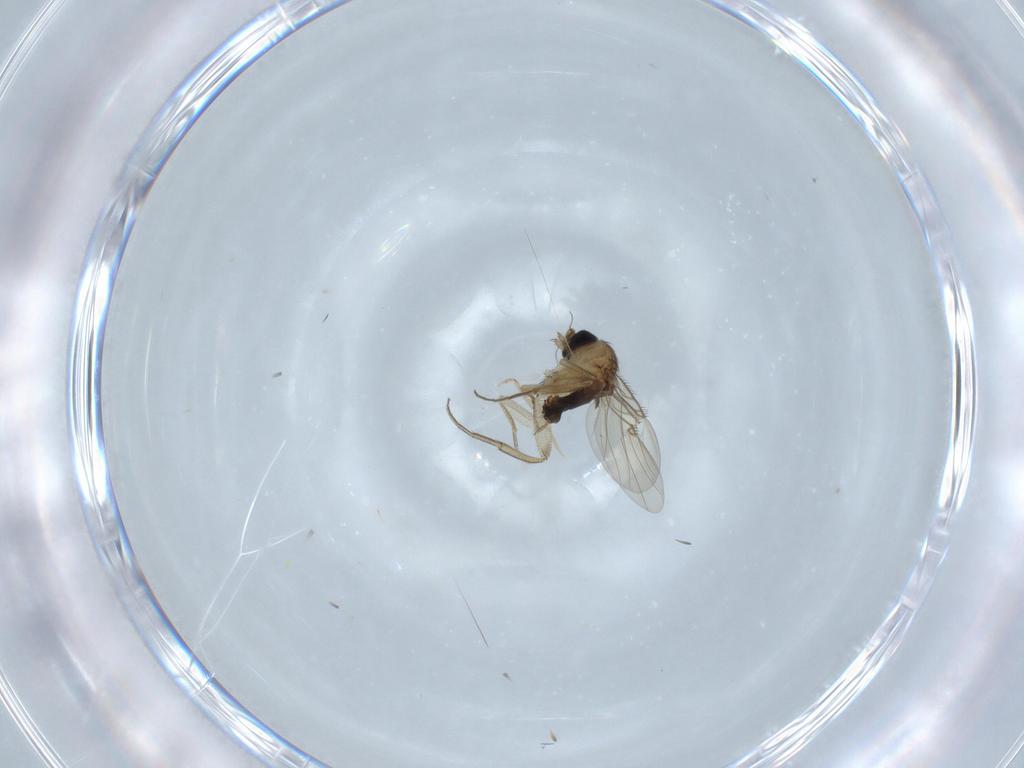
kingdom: Animalia
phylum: Arthropoda
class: Insecta
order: Diptera
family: Phoridae
